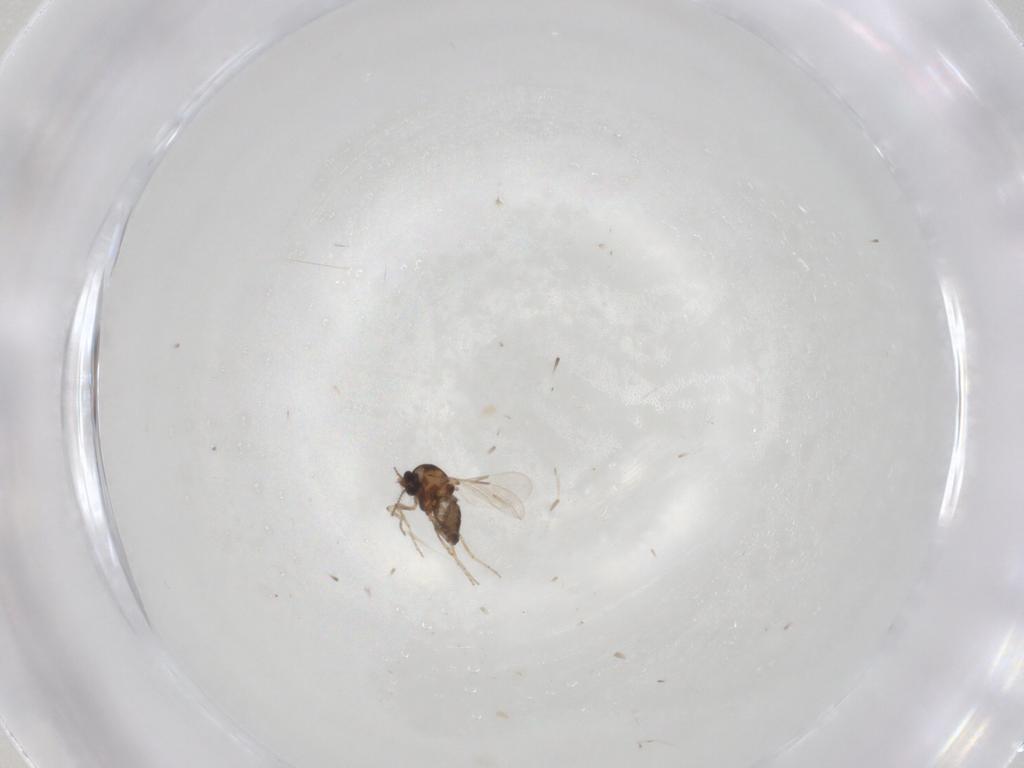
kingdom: Animalia
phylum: Arthropoda
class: Insecta
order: Diptera
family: Ceratopogonidae
